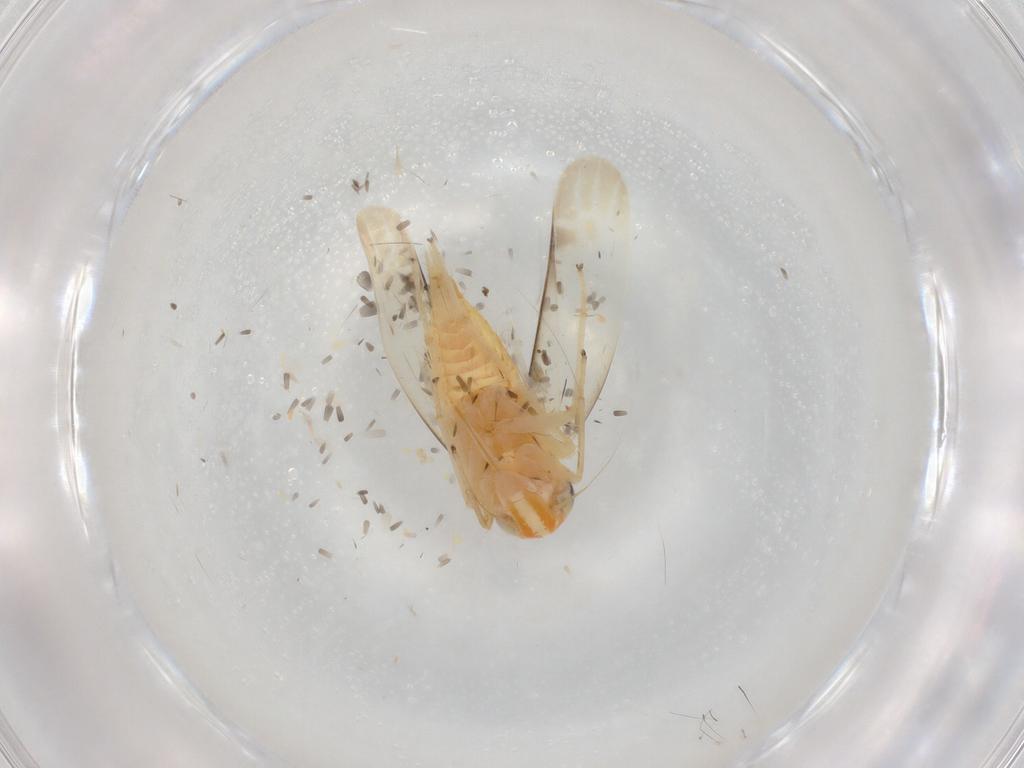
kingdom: Animalia
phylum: Arthropoda
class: Insecta
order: Hemiptera
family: Cicadellidae
